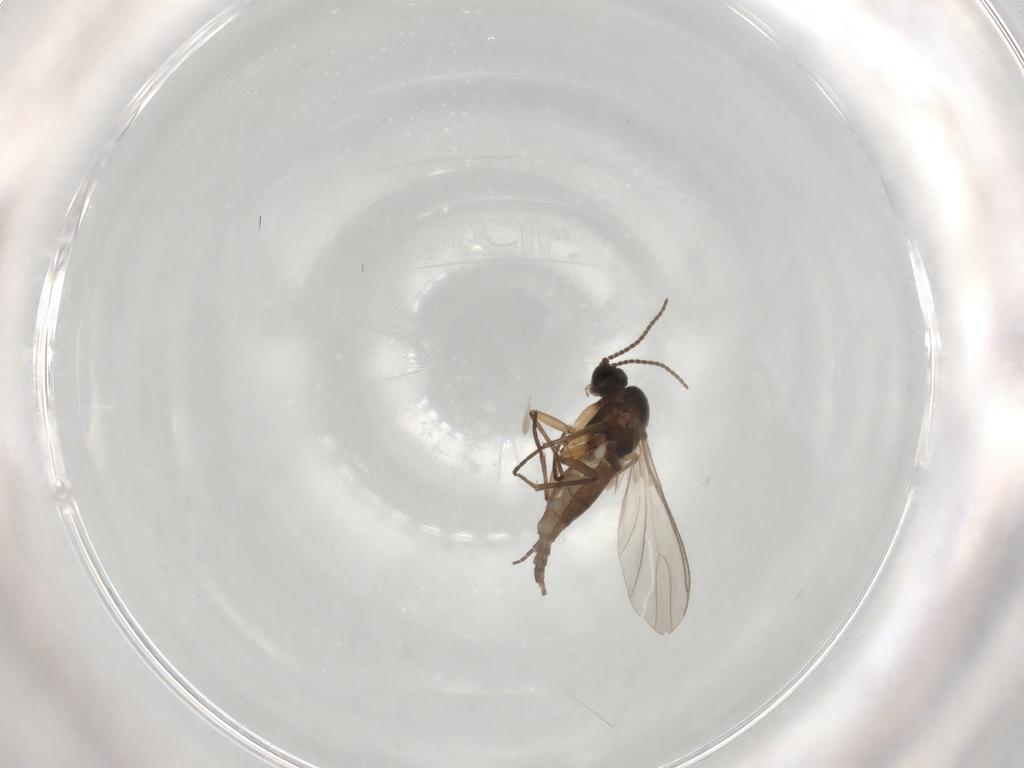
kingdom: Animalia
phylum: Arthropoda
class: Insecta
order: Diptera
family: Sciaridae
